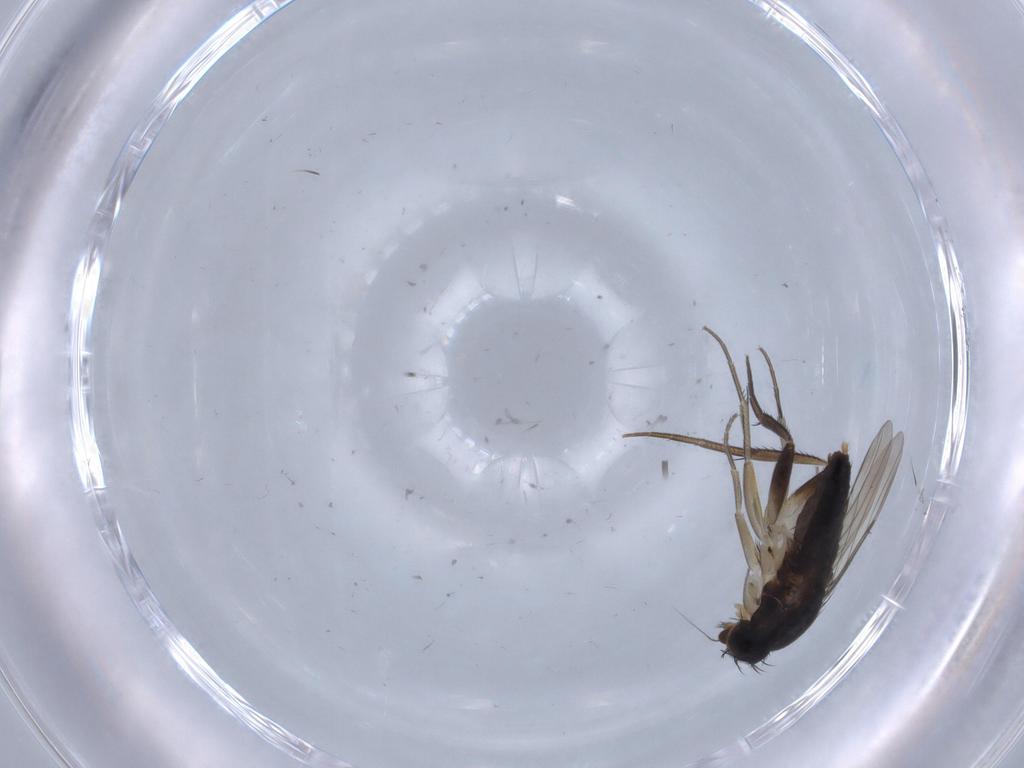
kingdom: Animalia
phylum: Arthropoda
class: Insecta
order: Diptera
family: Phoridae
